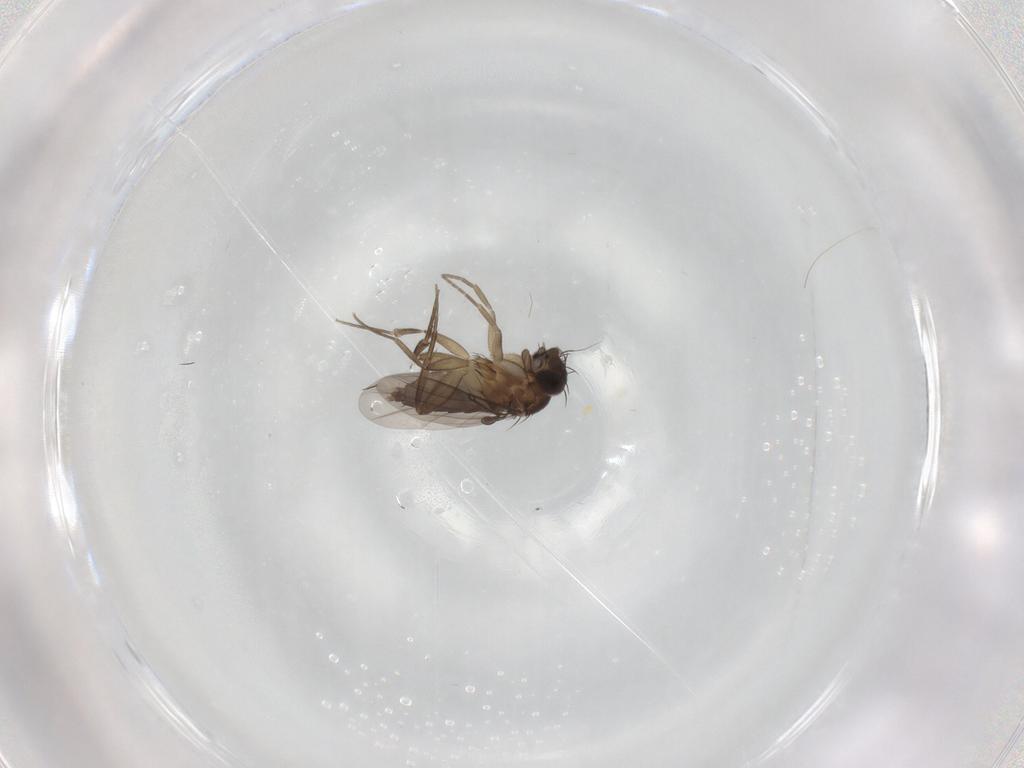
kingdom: Animalia
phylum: Arthropoda
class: Insecta
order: Diptera
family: Phoridae
